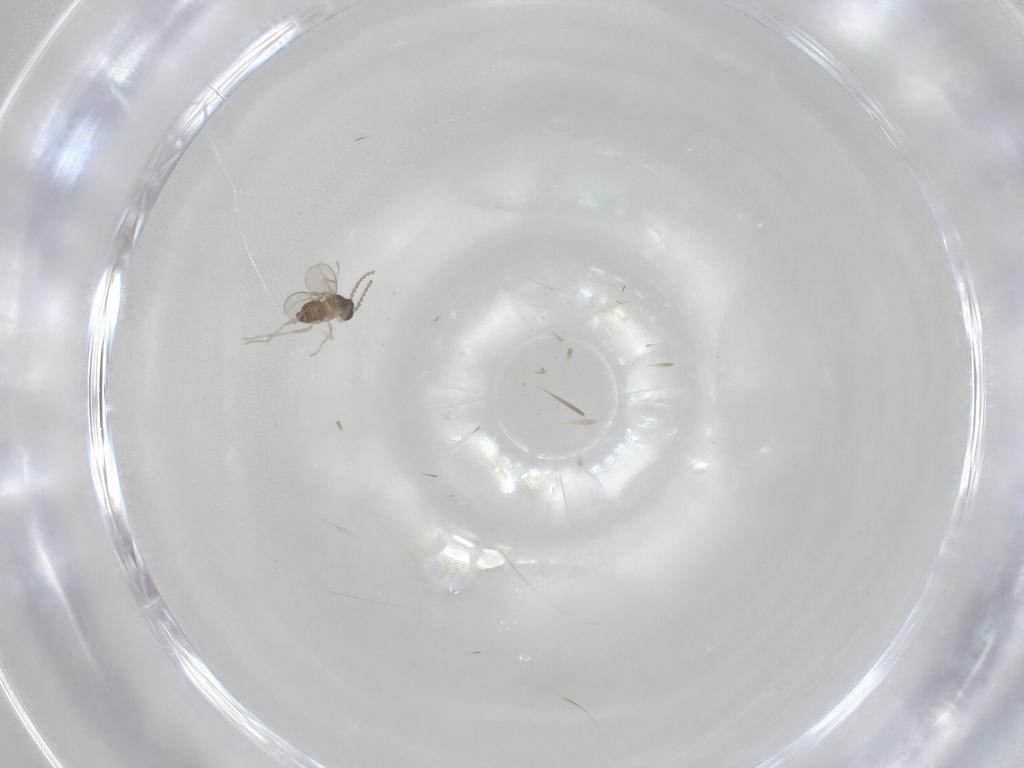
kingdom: Animalia
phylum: Arthropoda
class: Insecta
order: Diptera
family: Cecidomyiidae
